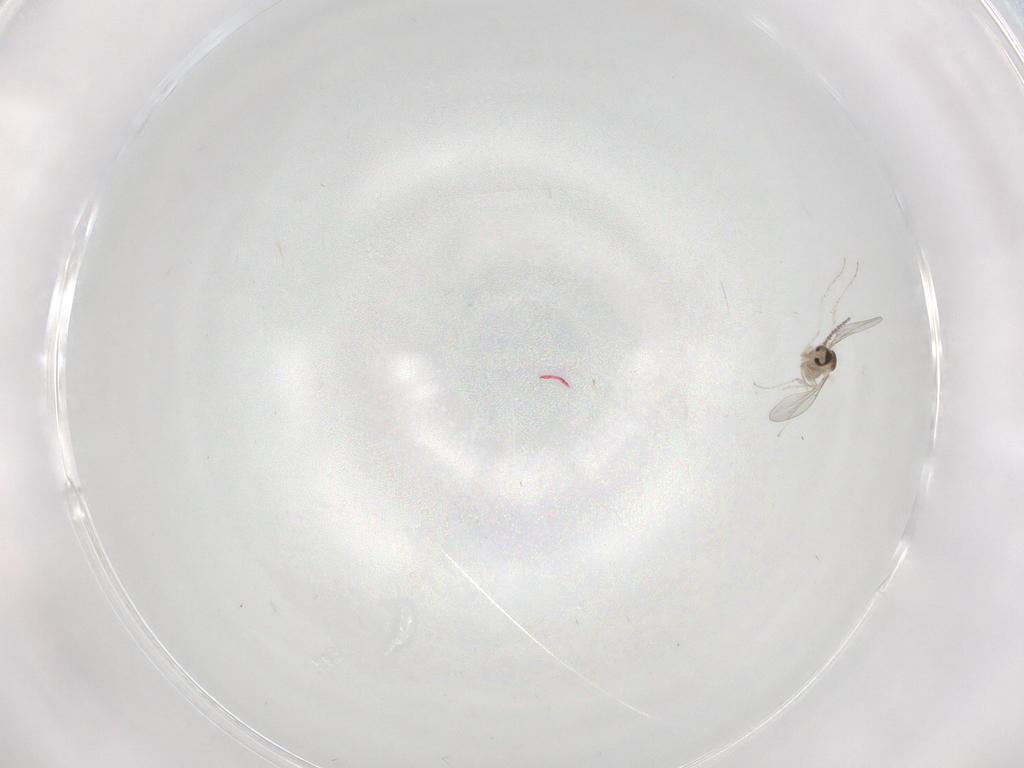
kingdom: Animalia
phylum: Arthropoda
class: Insecta
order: Diptera
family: Cecidomyiidae
